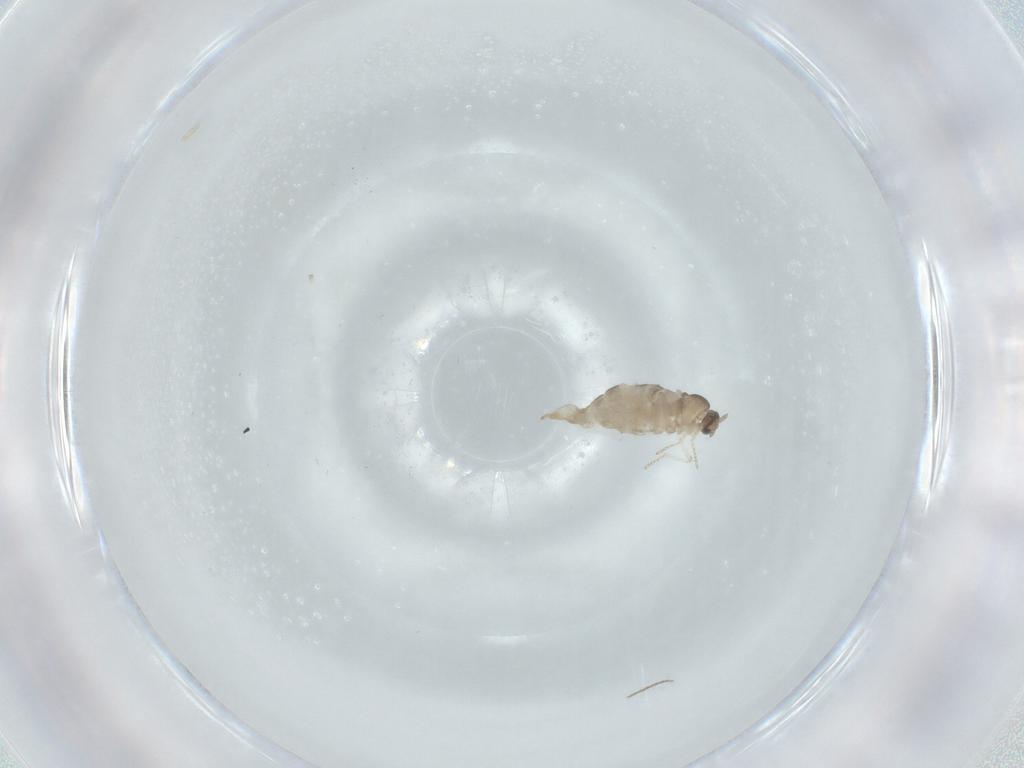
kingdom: Animalia
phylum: Arthropoda
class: Insecta
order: Diptera
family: Cecidomyiidae
